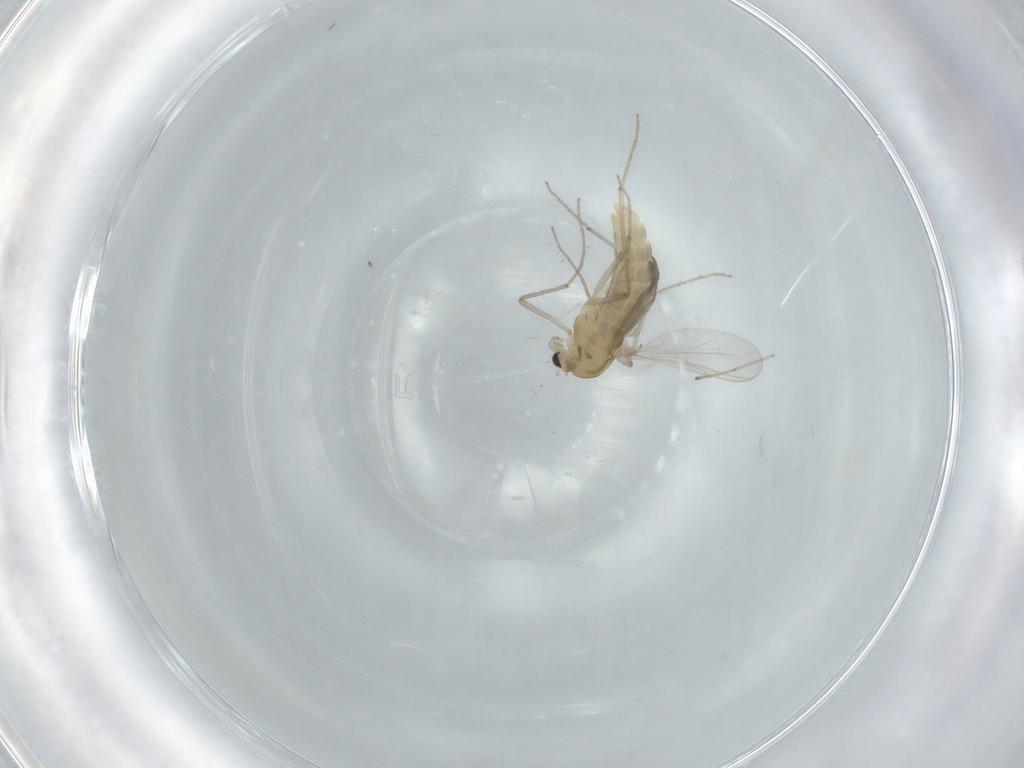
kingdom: Animalia
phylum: Arthropoda
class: Insecta
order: Diptera
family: Chironomidae
